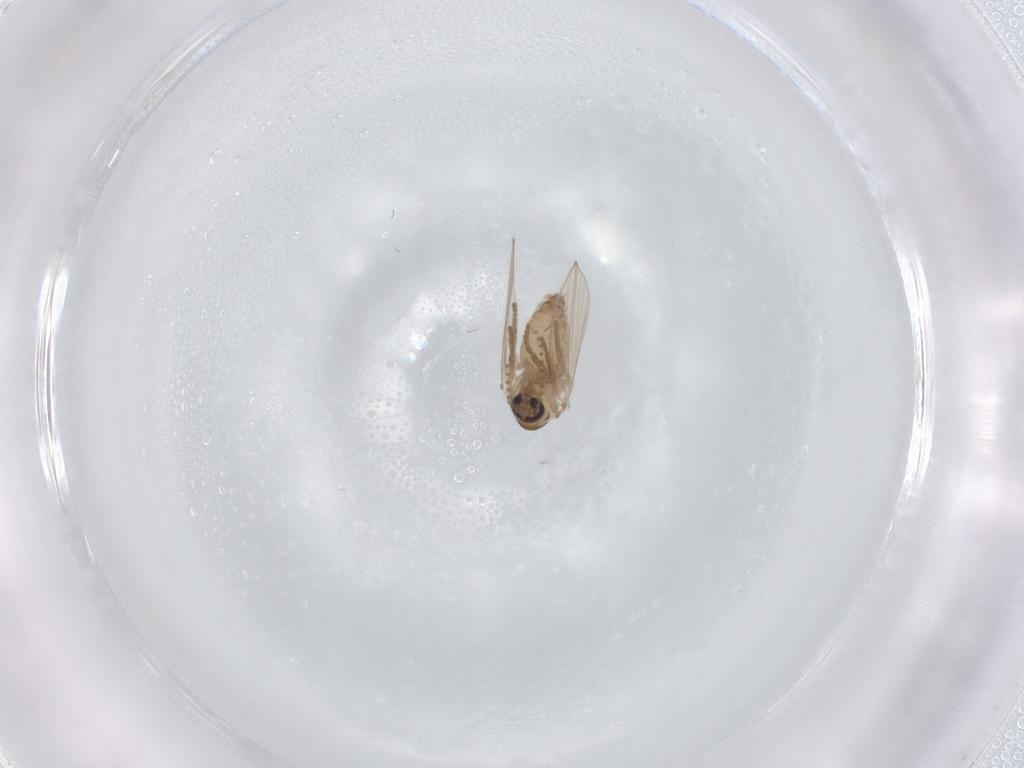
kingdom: Animalia
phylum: Arthropoda
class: Insecta
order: Diptera
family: Psychodidae
